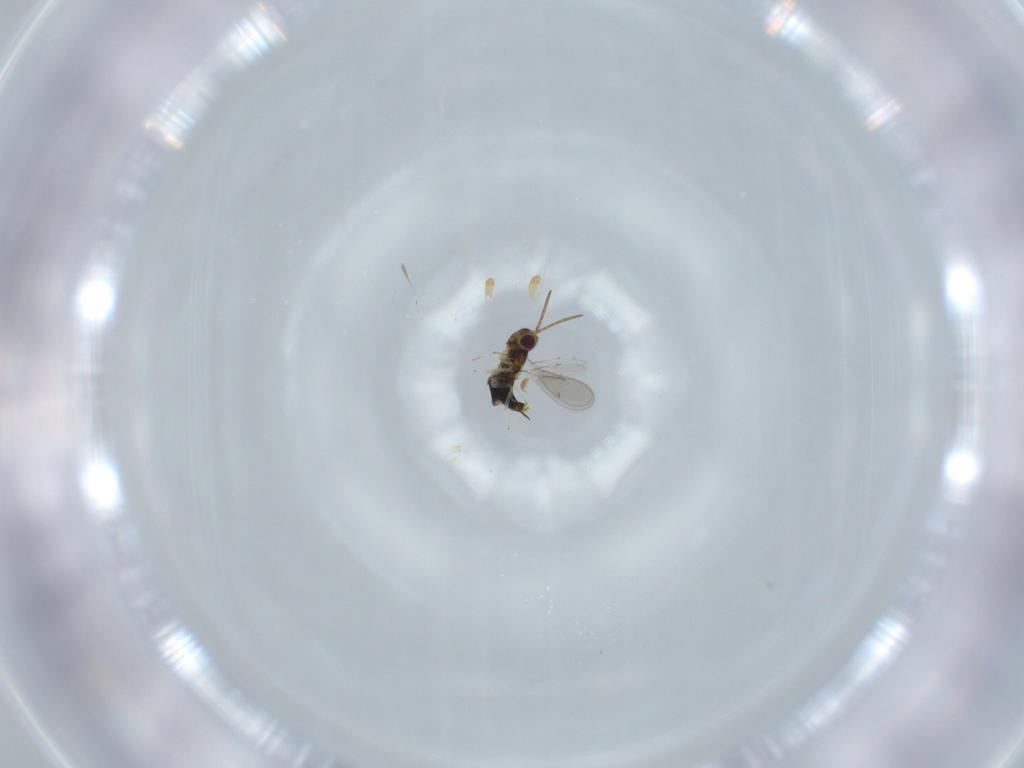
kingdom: Animalia
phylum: Arthropoda
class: Insecta
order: Hymenoptera
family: Aphelinidae
